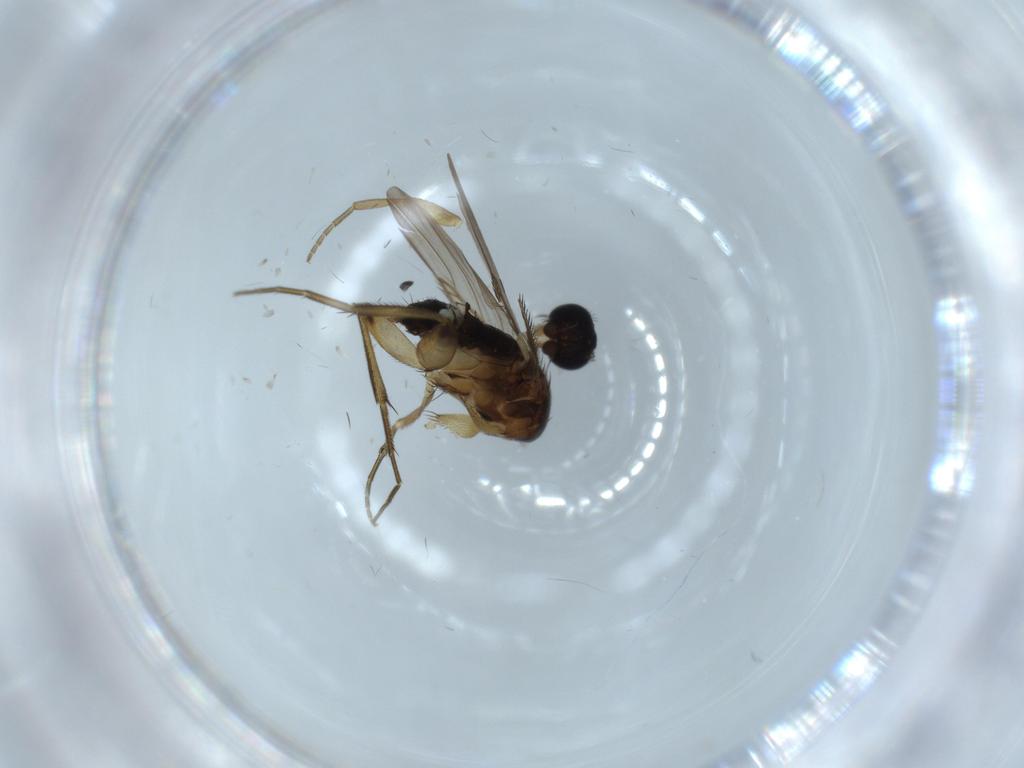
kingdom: Animalia
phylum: Arthropoda
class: Insecta
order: Diptera
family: Phoridae
